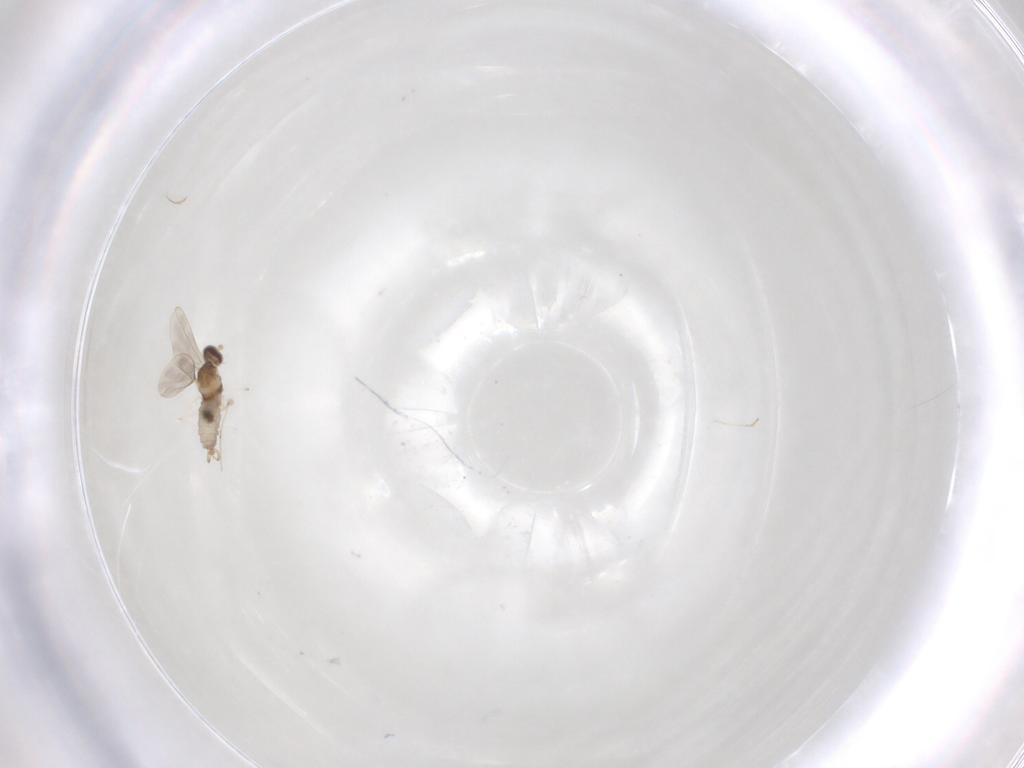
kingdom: Animalia
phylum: Arthropoda
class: Insecta
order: Diptera
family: Cecidomyiidae
